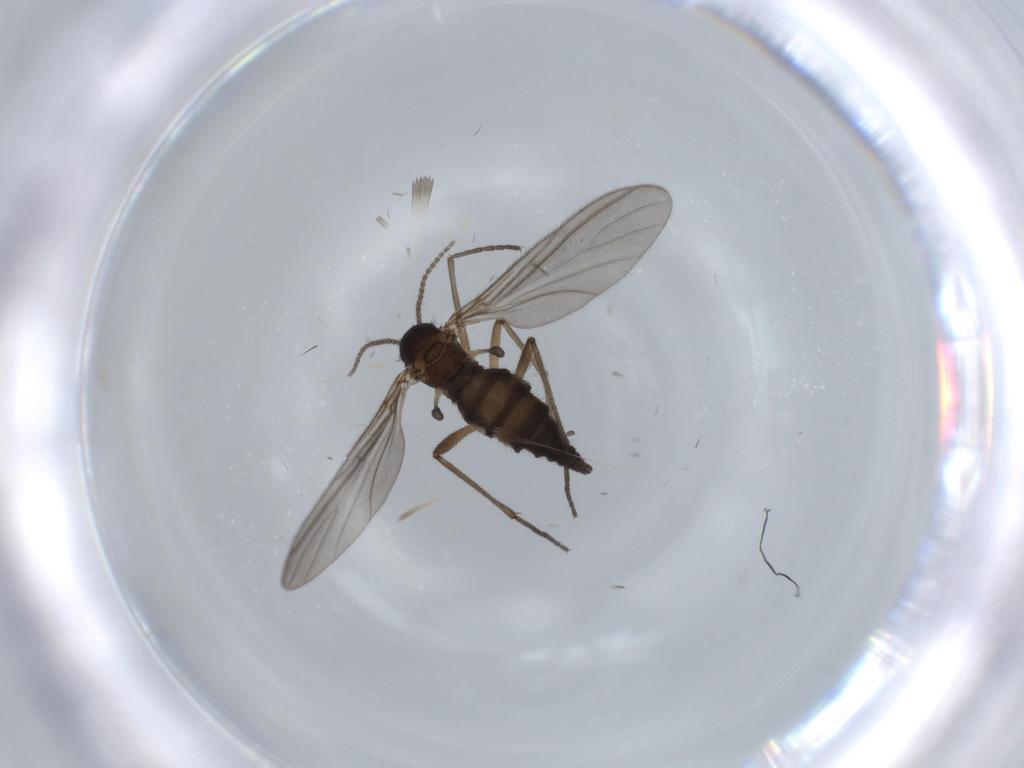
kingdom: Animalia
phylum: Arthropoda
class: Insecta
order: Diptera
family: Sciaridae
